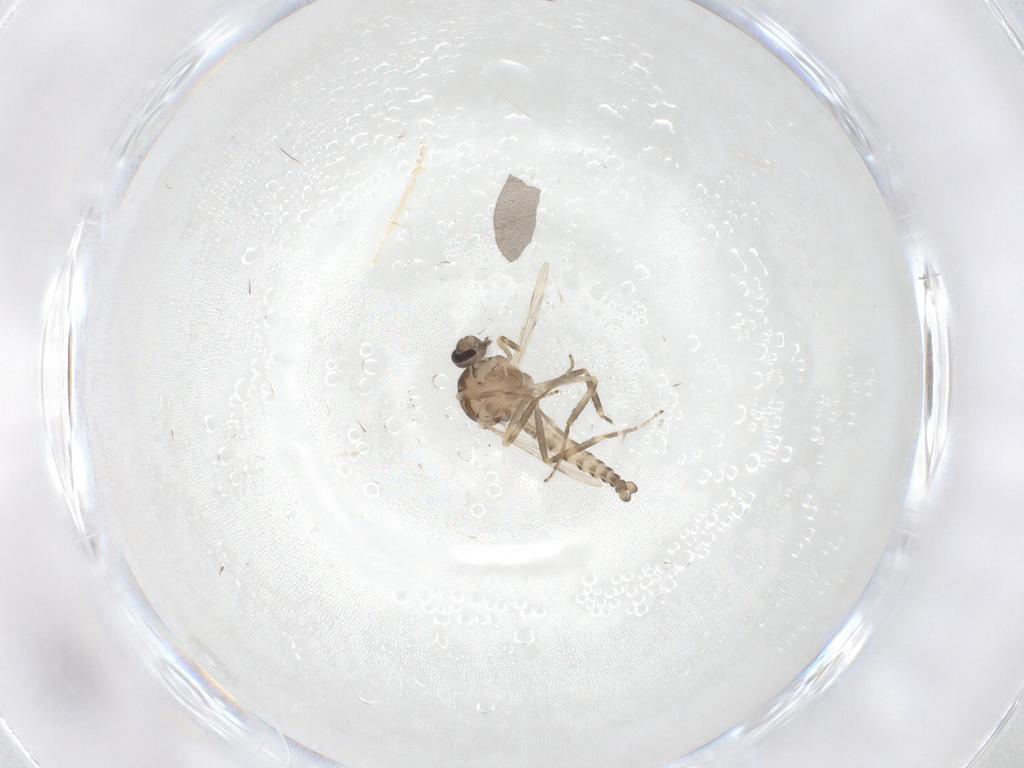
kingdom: Animalia
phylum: Arthropoda
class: Insecta
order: Diptera
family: Ceratopogonidae
